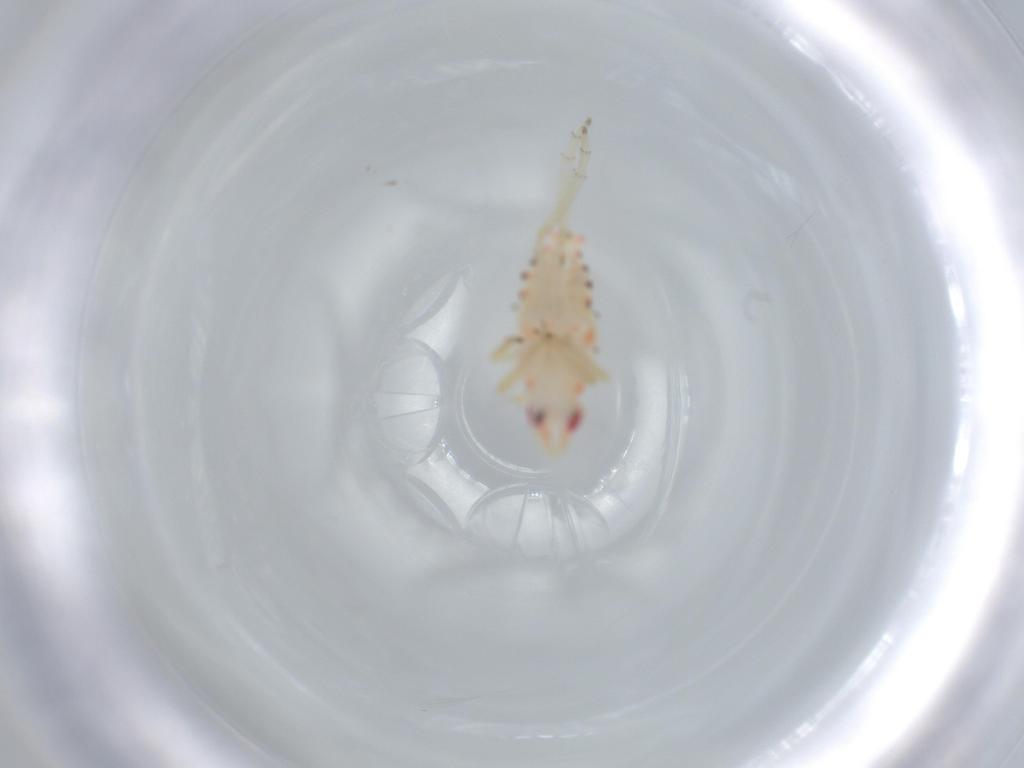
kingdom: Animalia
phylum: Arthropoda
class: Insecta
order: Hemiptera
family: Tropiduchidae
